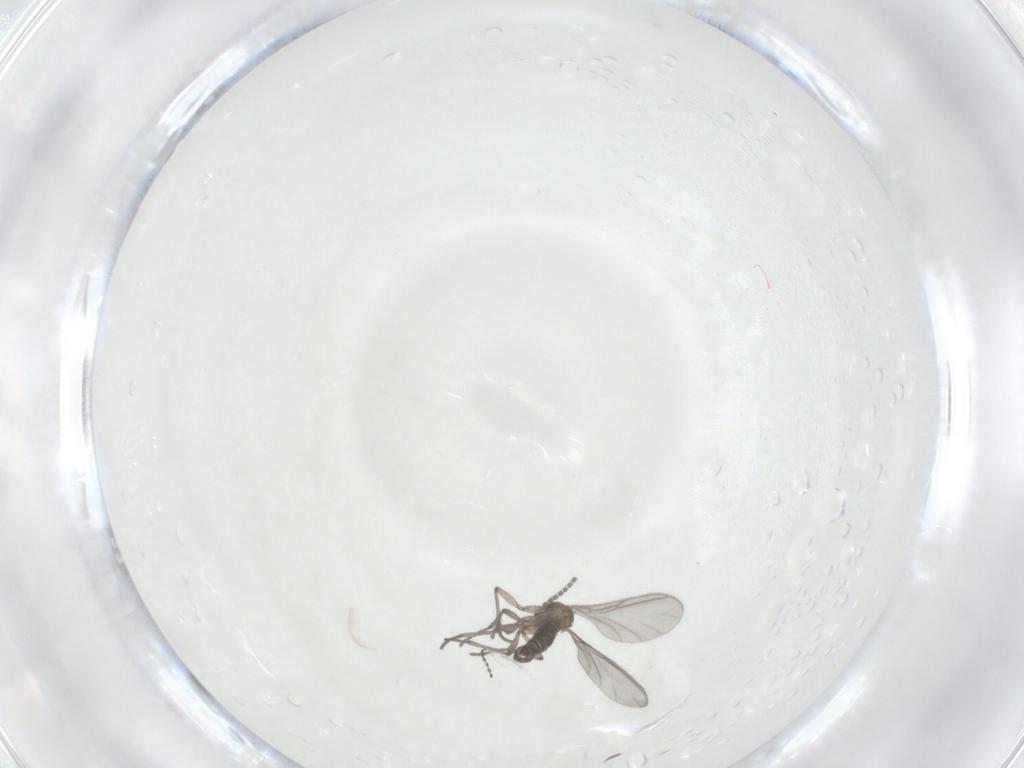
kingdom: Animalia
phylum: Arthropoda
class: Insecta
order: Diptera
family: Sciaridae
